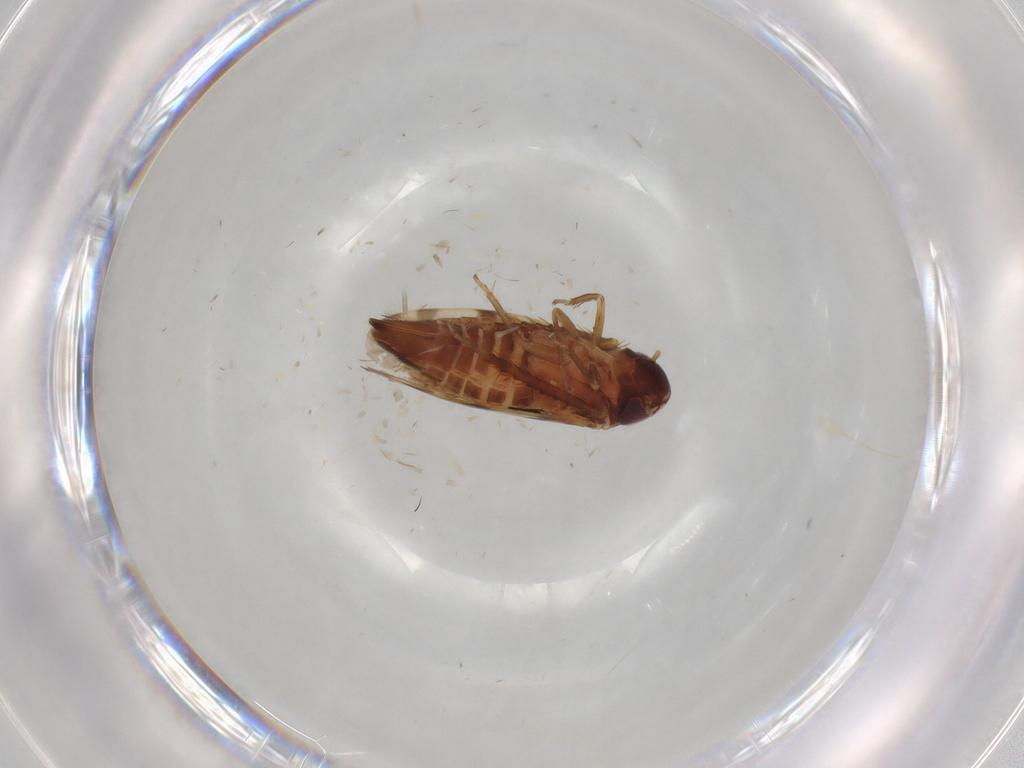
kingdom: Animalia
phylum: Arthropoda
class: Insecta
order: Hemiptera
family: Cicadellidae
